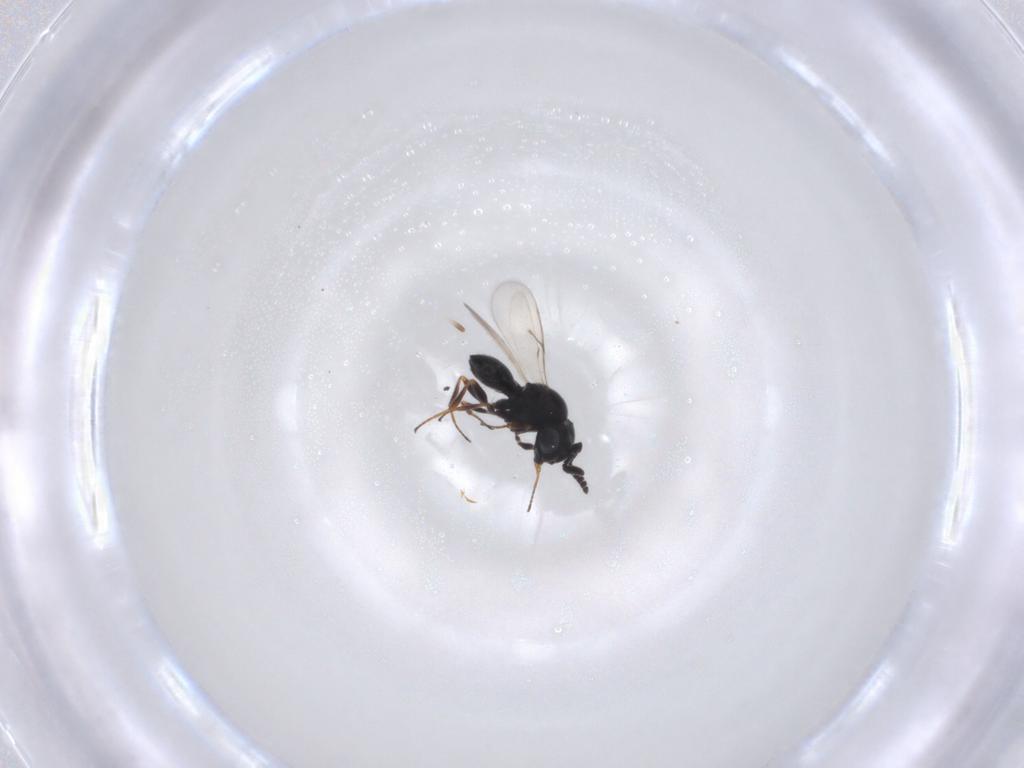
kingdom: Animalia
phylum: Arthropoda
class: Insecta
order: Hymenoptera
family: Scelionidae
